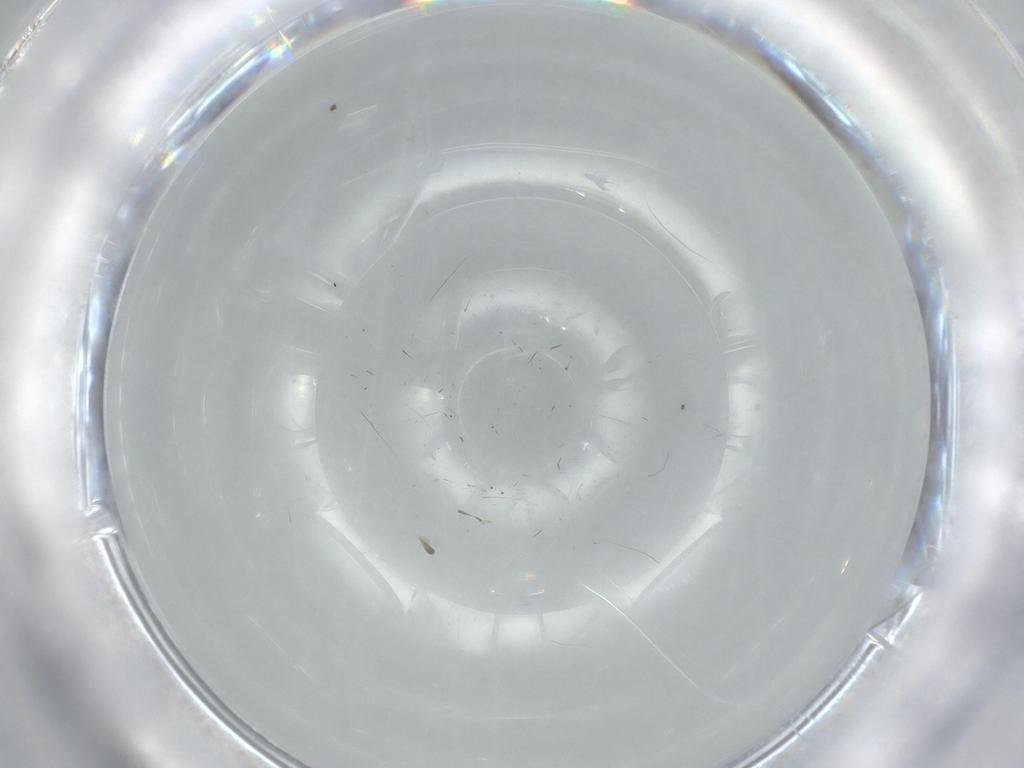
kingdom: Animalia
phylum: Arthropoda
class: Insecta
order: Diptera
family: Sciaridae
